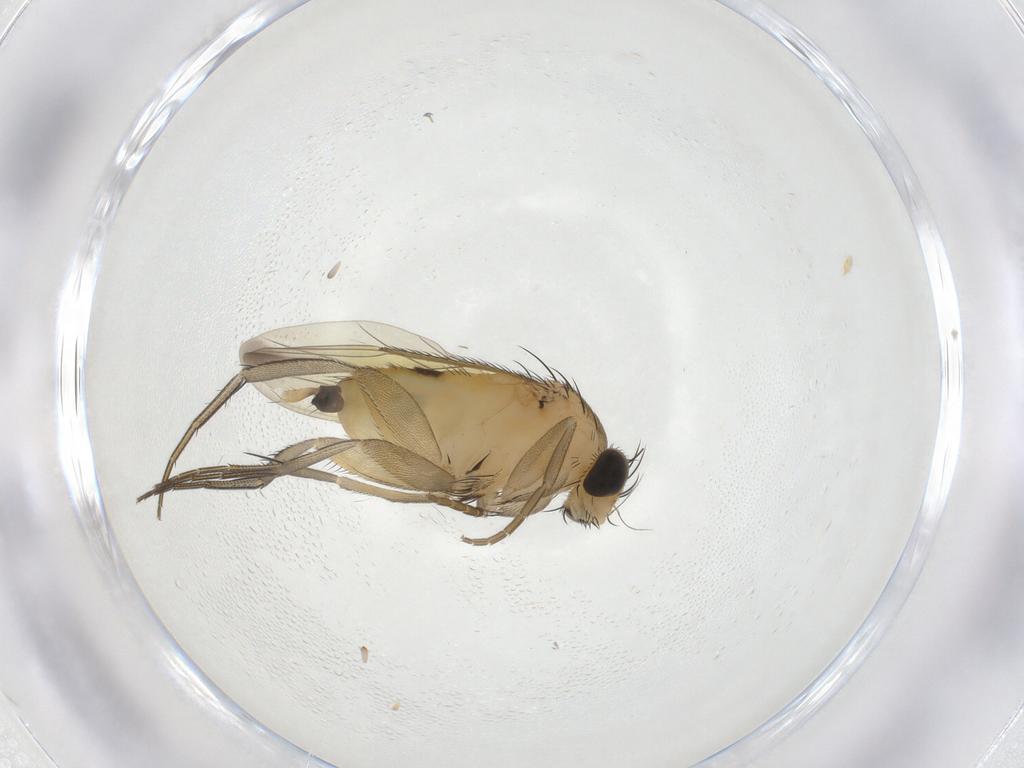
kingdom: Animalia
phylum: Arthropoda
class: Insecta
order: Diptera
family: Phoridae
